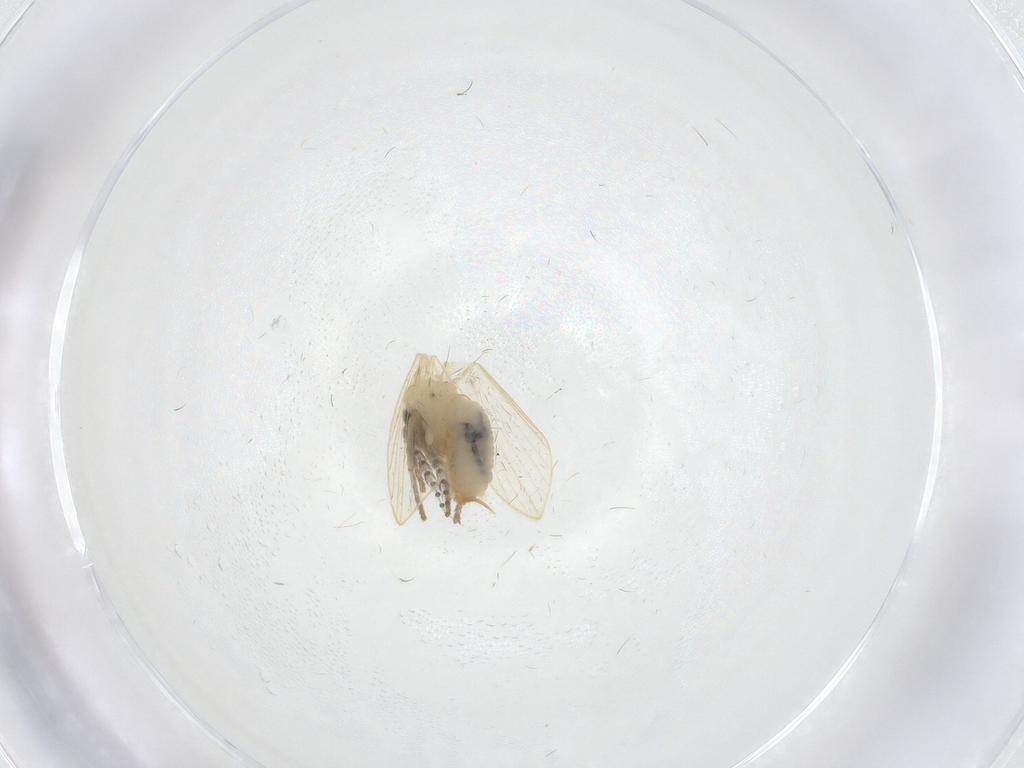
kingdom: Animalia
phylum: Arthropoda
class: Insecta
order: Diptera
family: Psychodidae
